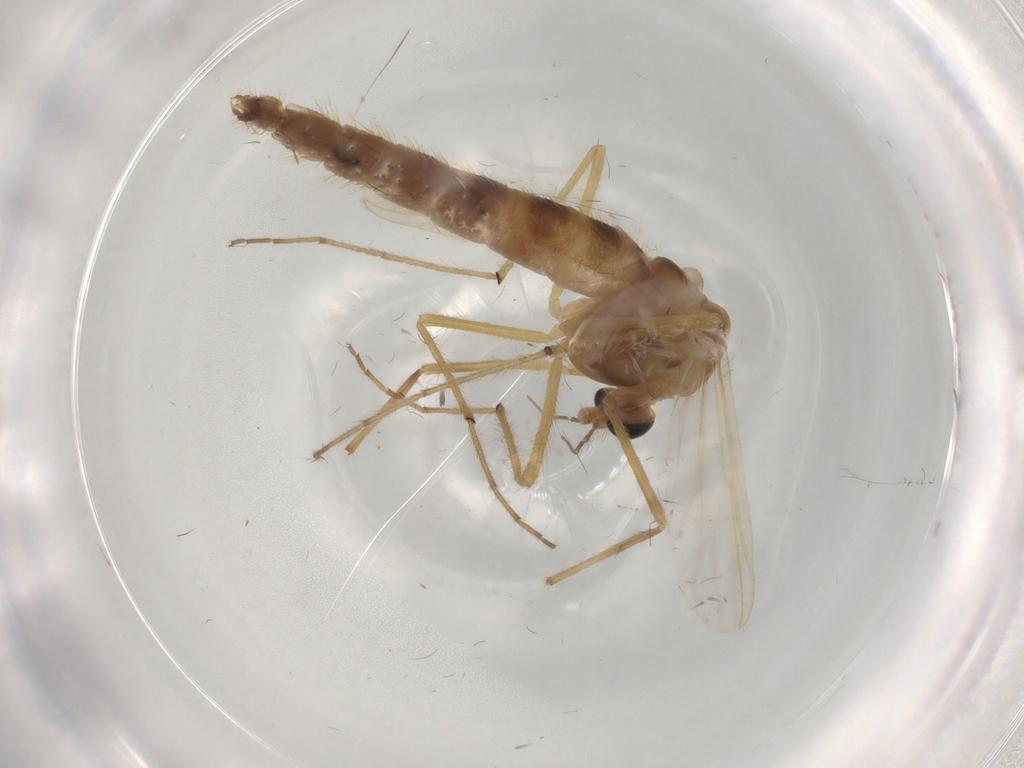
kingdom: Animalia
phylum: Arthropoda
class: Insecta
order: Diptera
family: Chironomidae
